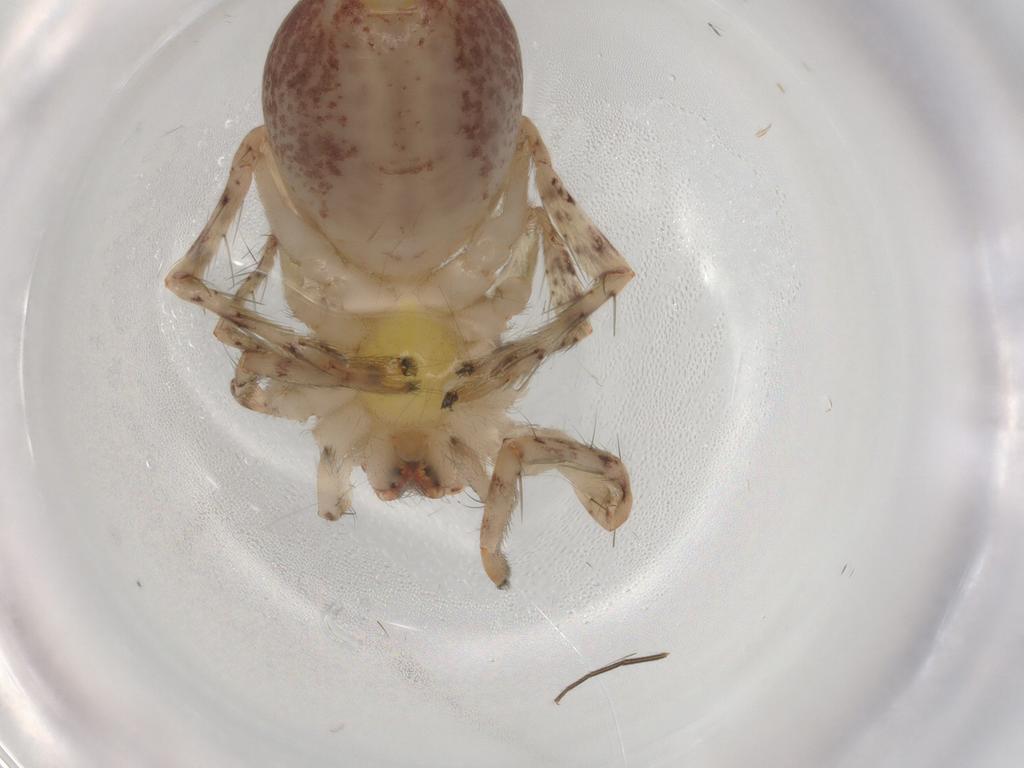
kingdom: Animalia
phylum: Arthropoda
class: Arachnida
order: Araneae
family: Anyphaenidae
